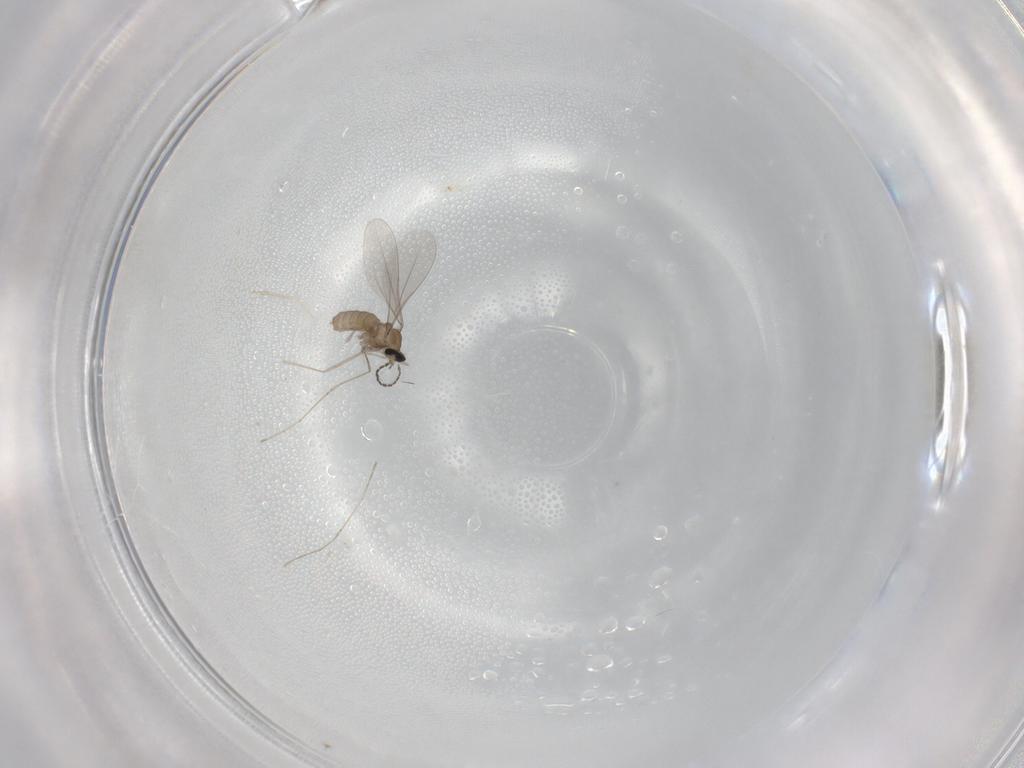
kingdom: Animalia
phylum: Arthropoda
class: Insecta
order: Diptera
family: Cecidomyiidae
